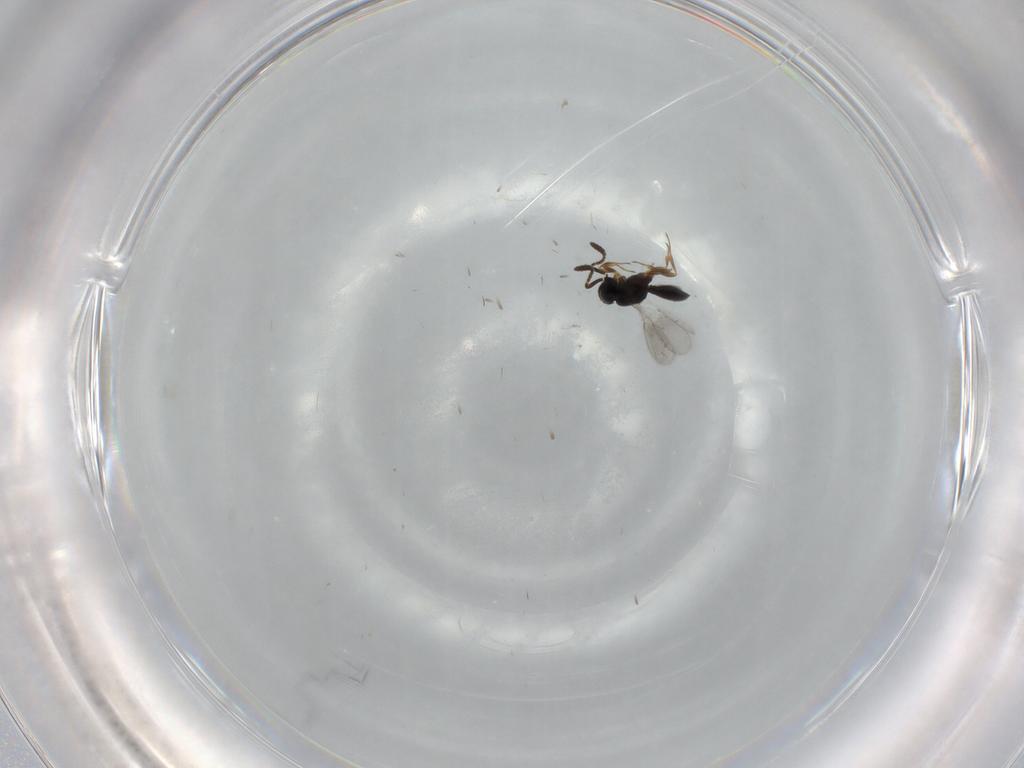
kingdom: Animalia
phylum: Arthropoda
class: Insecta
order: Hymenoptera
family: Scelionidae
